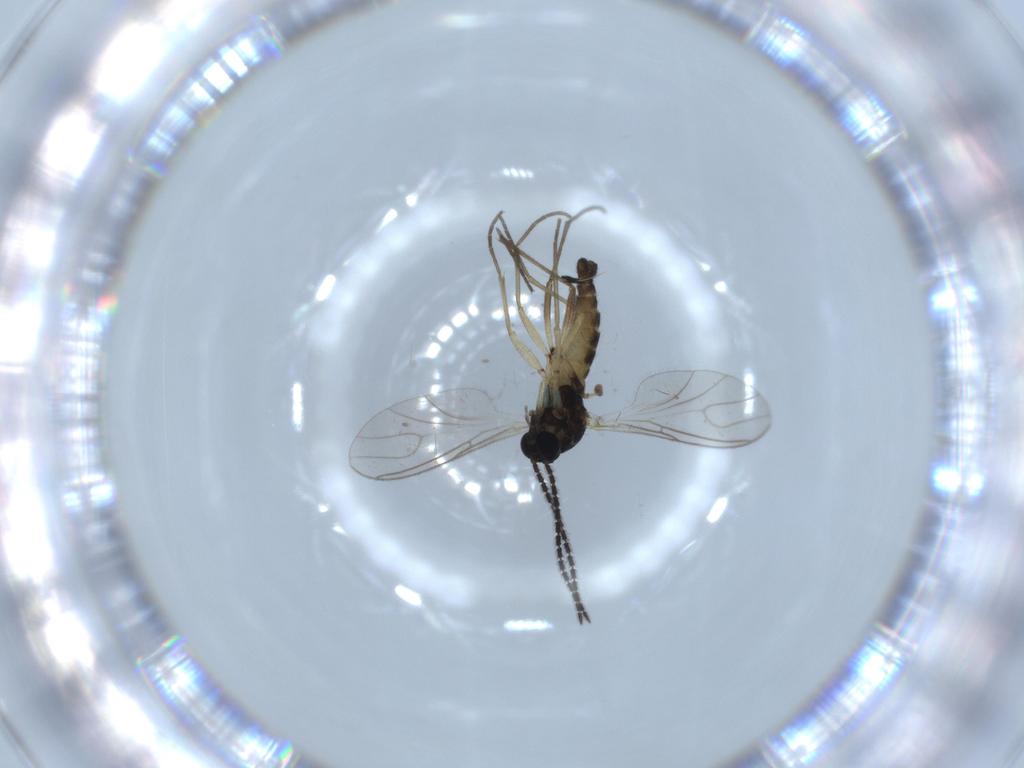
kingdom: Animalia
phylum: Arthropoda
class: Insecta
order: Diptera
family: Sciaridae
